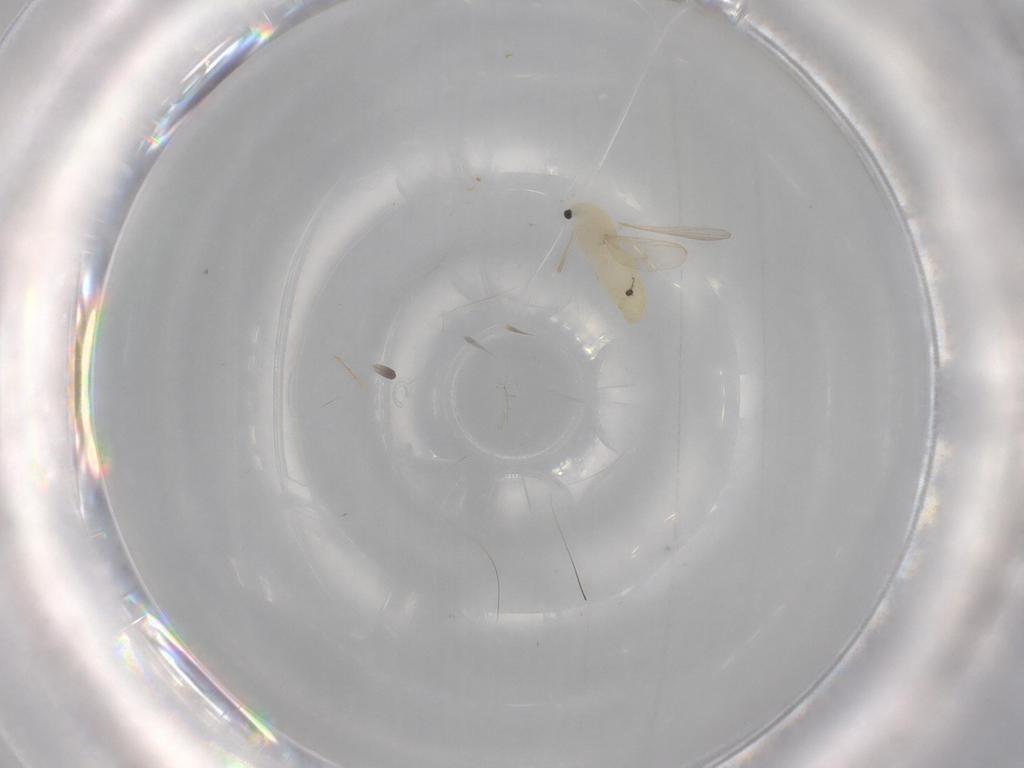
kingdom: Animalia
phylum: Arthropoda
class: Insecta
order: Diptera
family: Chironomidae
